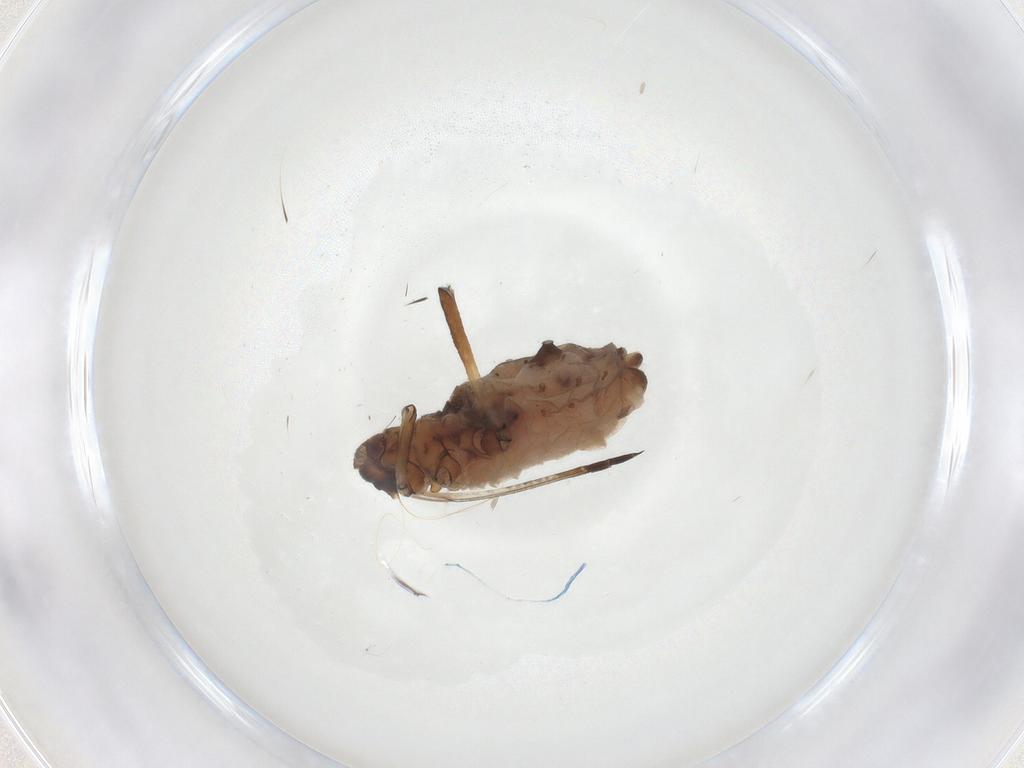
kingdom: Animalia
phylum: Arthropoda
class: Insecta
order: Hemiptera
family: Aphididae
